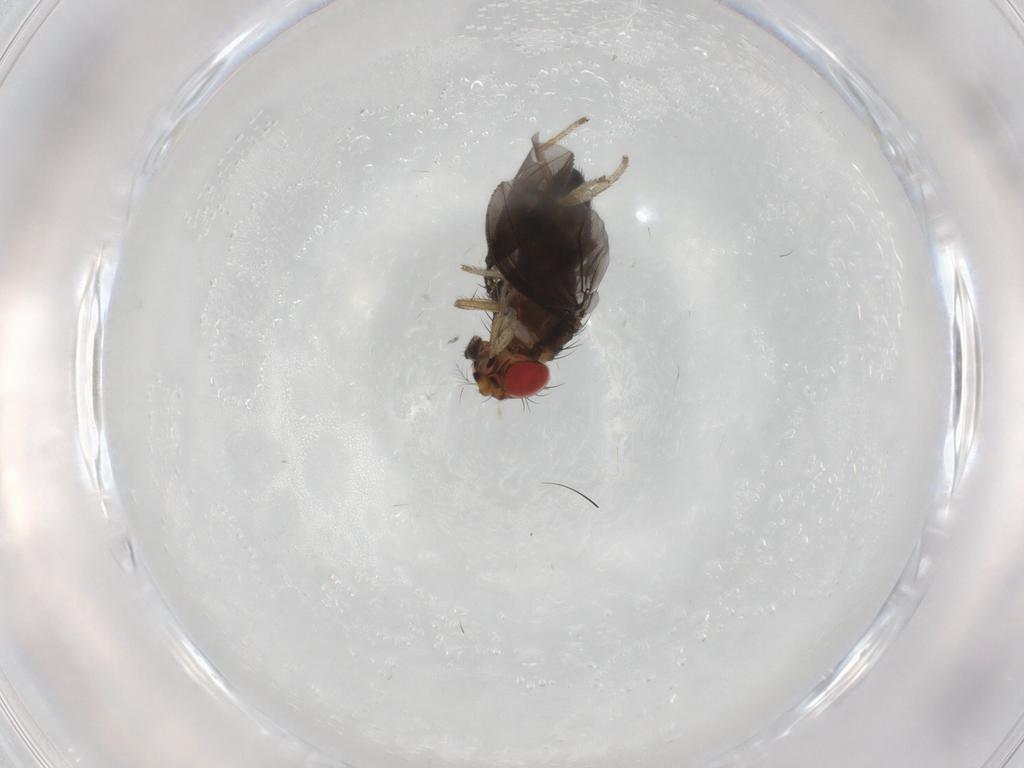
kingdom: Animalia
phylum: Arthropoda
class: Insecta
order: Diptera
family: Drosophilidae
